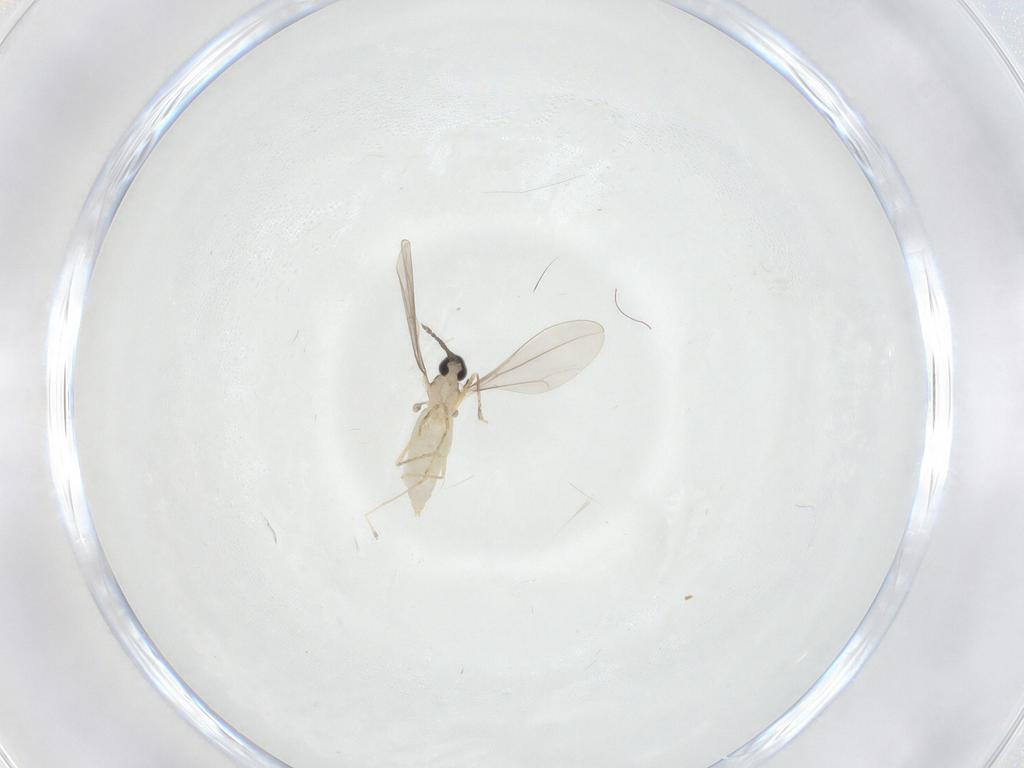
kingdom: Animalia
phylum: Arthropoda
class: Insecta
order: Diptera
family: Cecidomyiidae
